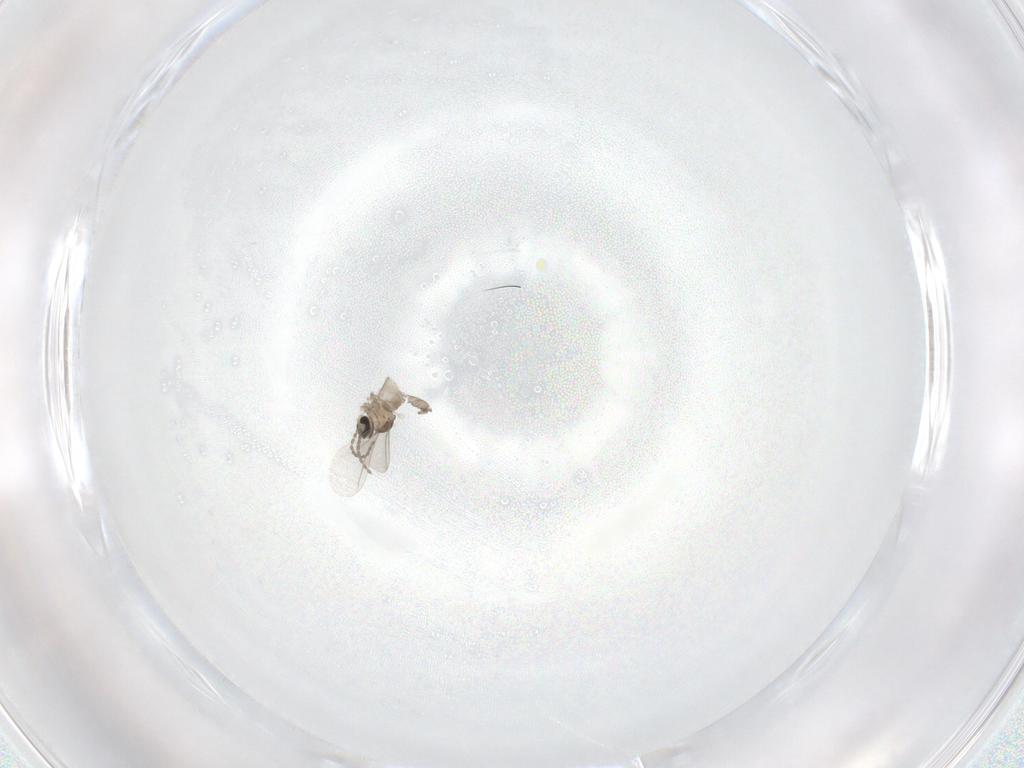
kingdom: Animalia
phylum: Arthropoda
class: Insecta
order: Diptera
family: Cecidomyiidae
